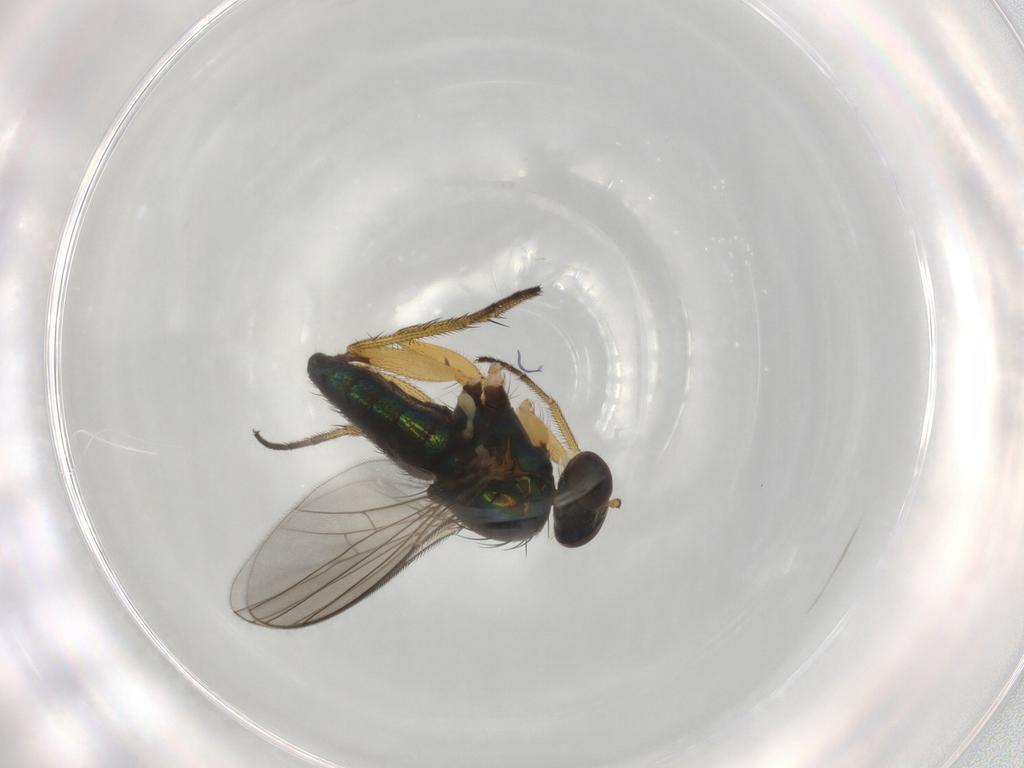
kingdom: Animalia
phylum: Arthropoda
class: Insecta
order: Diptera
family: Dolichopodidae
